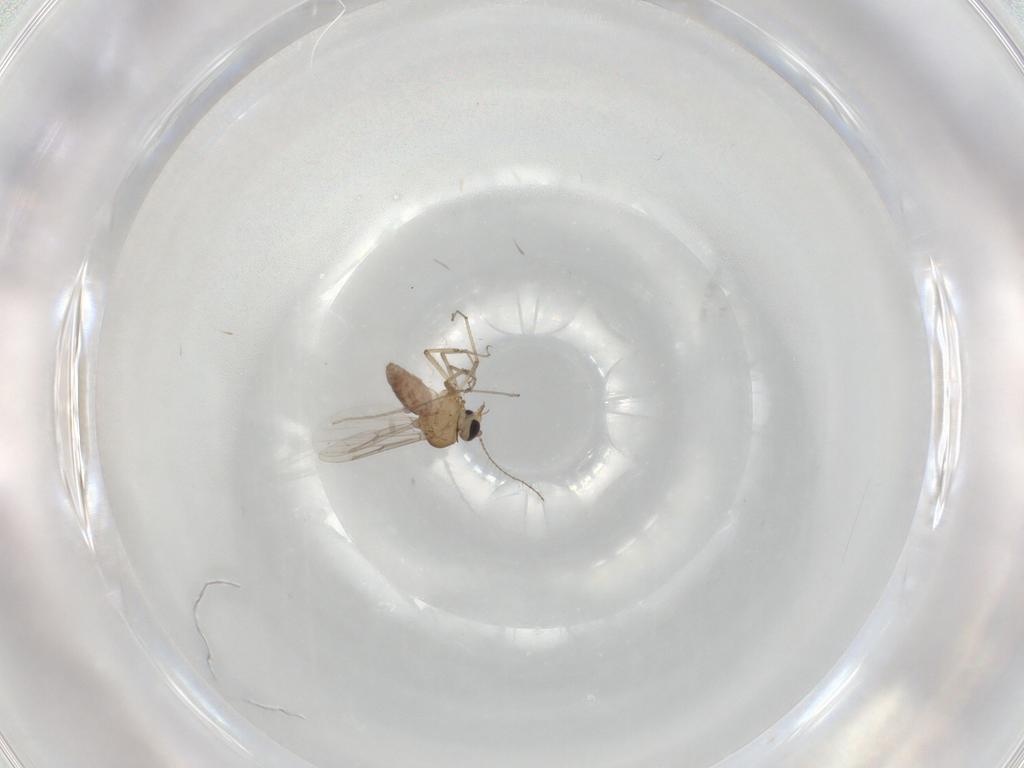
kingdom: Animalia
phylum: Arthropoda
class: Insecta
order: Diptera
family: Ceratopogonidae
